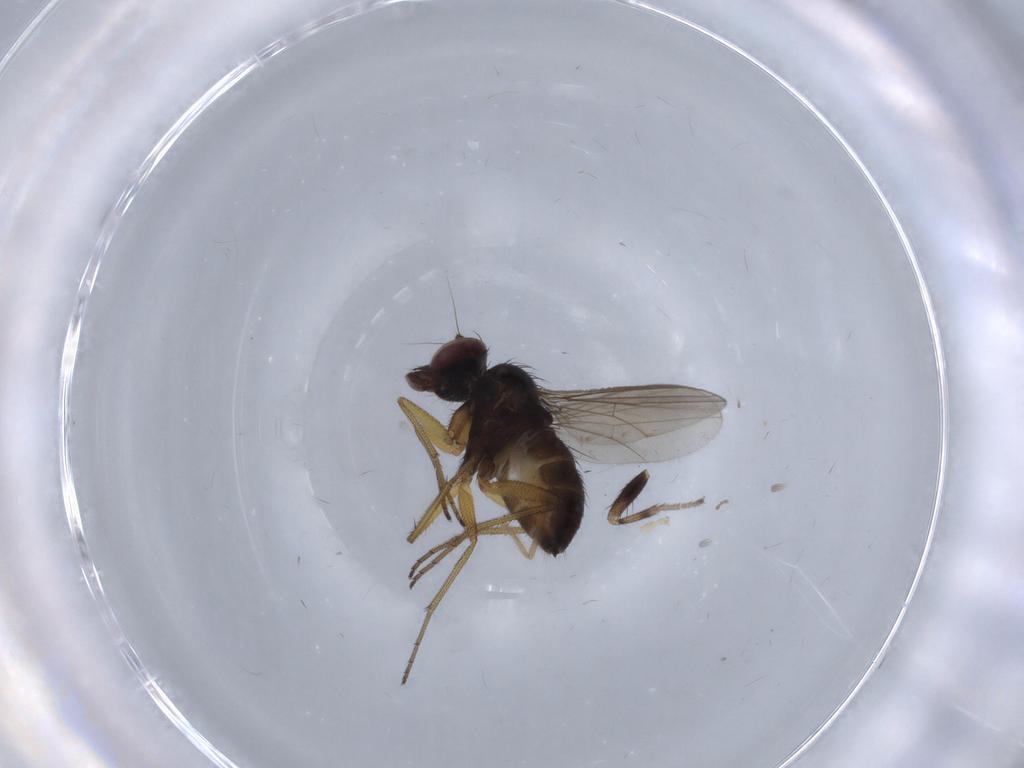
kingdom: Animalia
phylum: Arthropoda
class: Insecta
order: Diptera
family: Dolichopodidae
